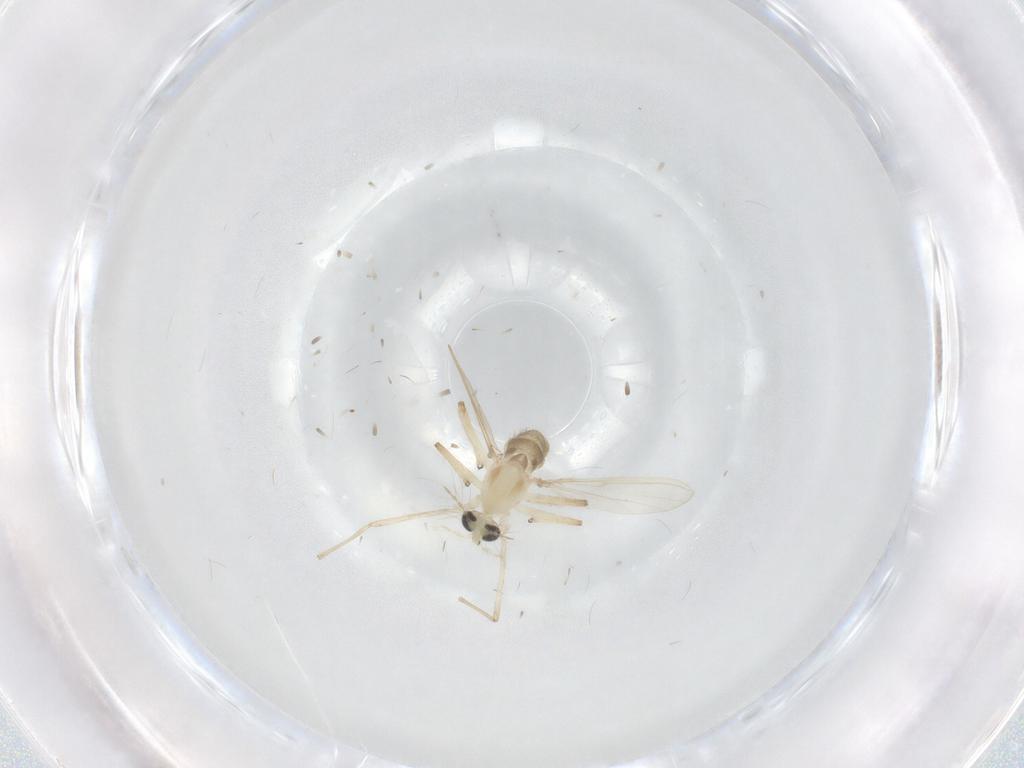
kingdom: Animalia
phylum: Arthropoda
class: Insecta
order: Diptera
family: Chironomidae
